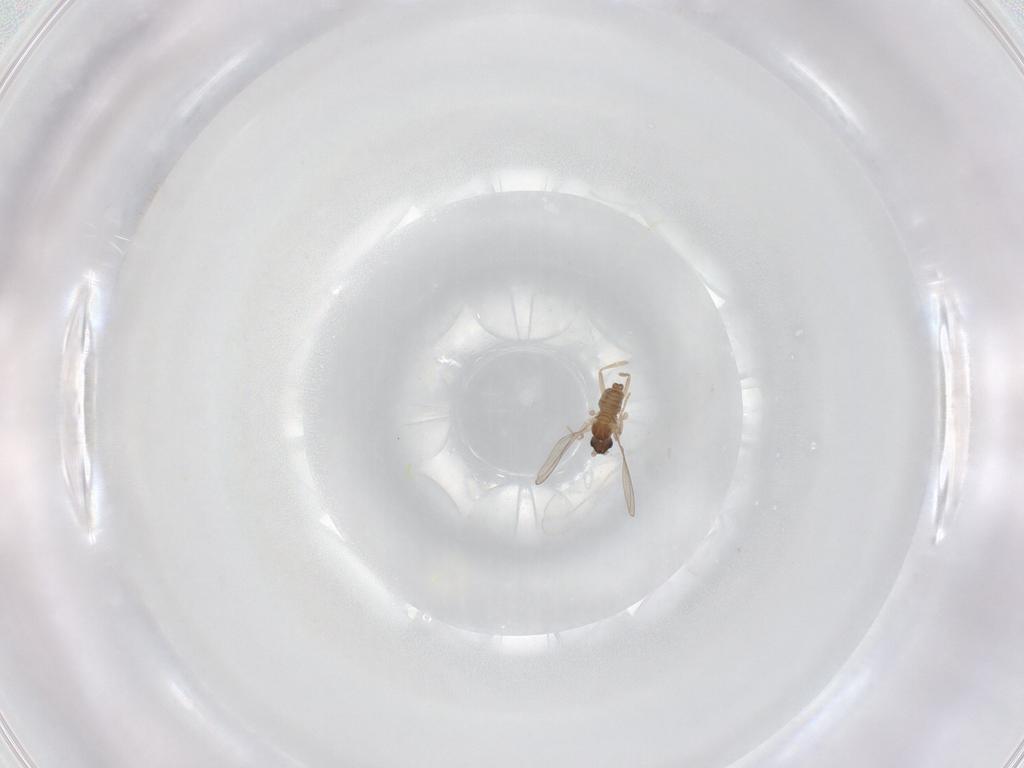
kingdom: Animalia
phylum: Arthropoda
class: Insecta
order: Diptera
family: Cecidomyiidae
